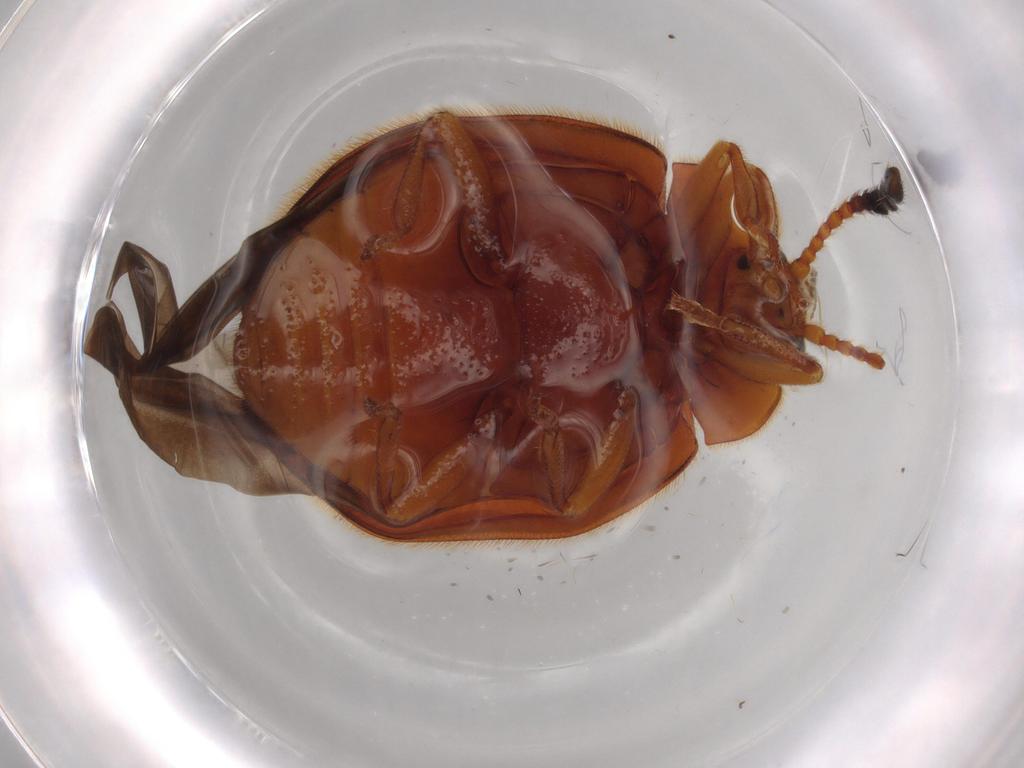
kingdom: Animalia
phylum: Arthropoda
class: Insecta
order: Coleoptera
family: Endomychidae
